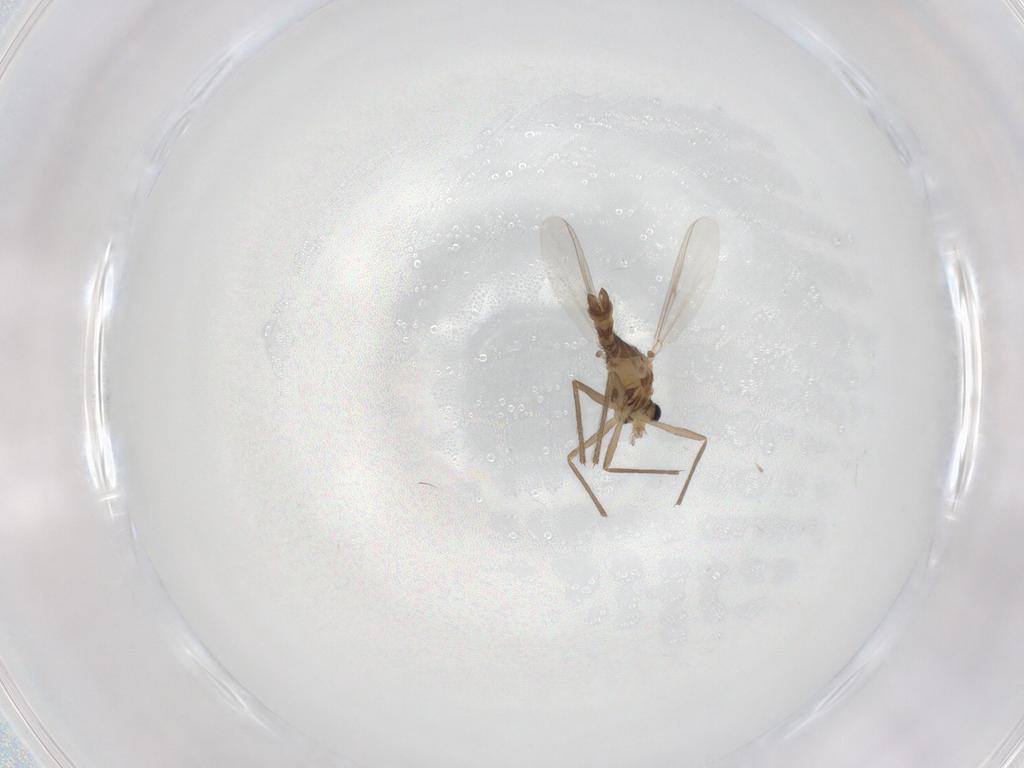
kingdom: Animalia
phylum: Arthropoda
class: Insecta
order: Diptera
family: Chironomidae
